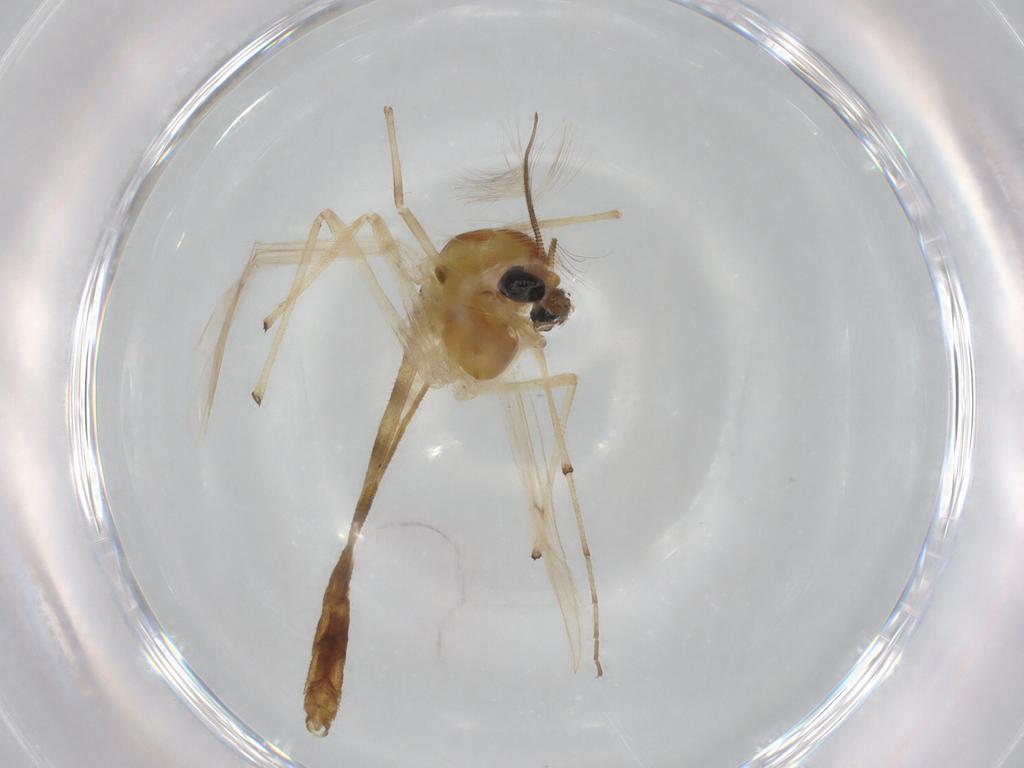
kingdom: Animalia
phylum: Arthropoda
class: Insecta
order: Diptera
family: Chironomidae
